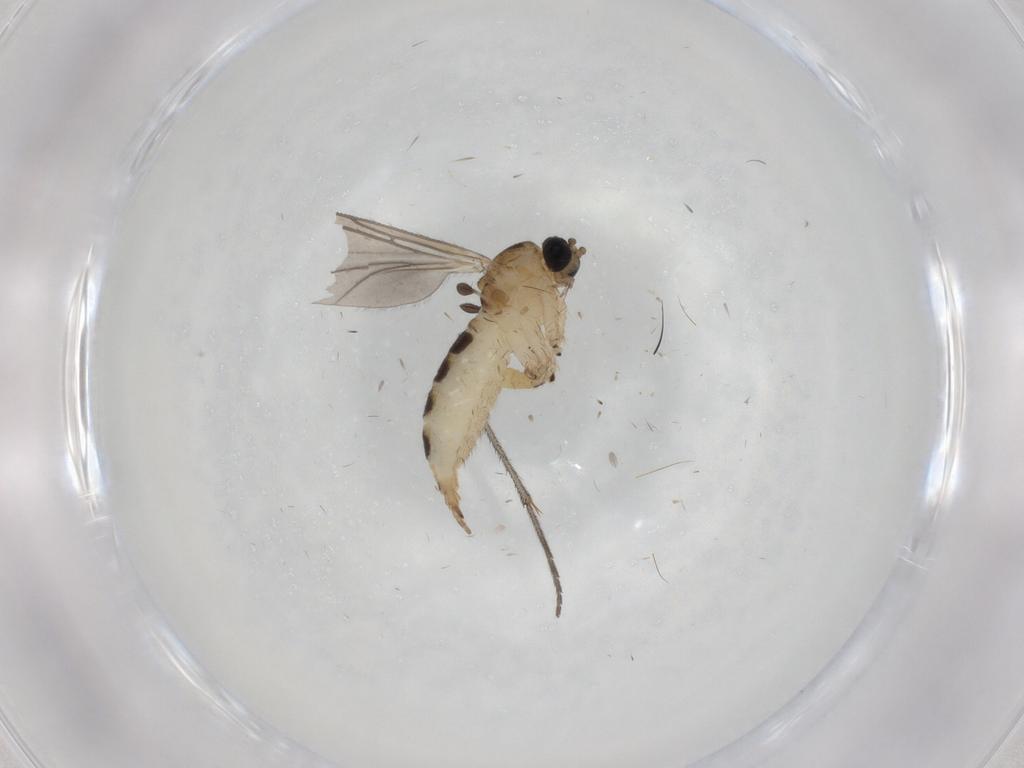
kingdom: Animalia
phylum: Arthropoda
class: Insecta
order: Diptera
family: Sciaridae
